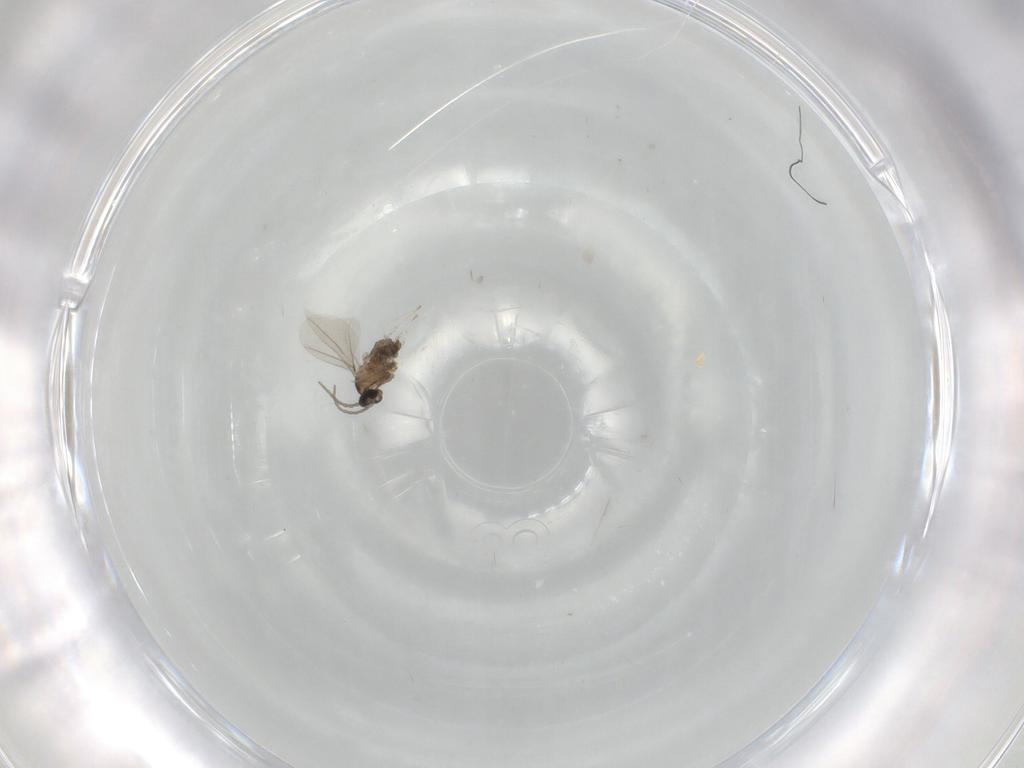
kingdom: Animalia
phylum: Arthropoda
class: Insecta
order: Diptera
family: Cecidomyiidae
